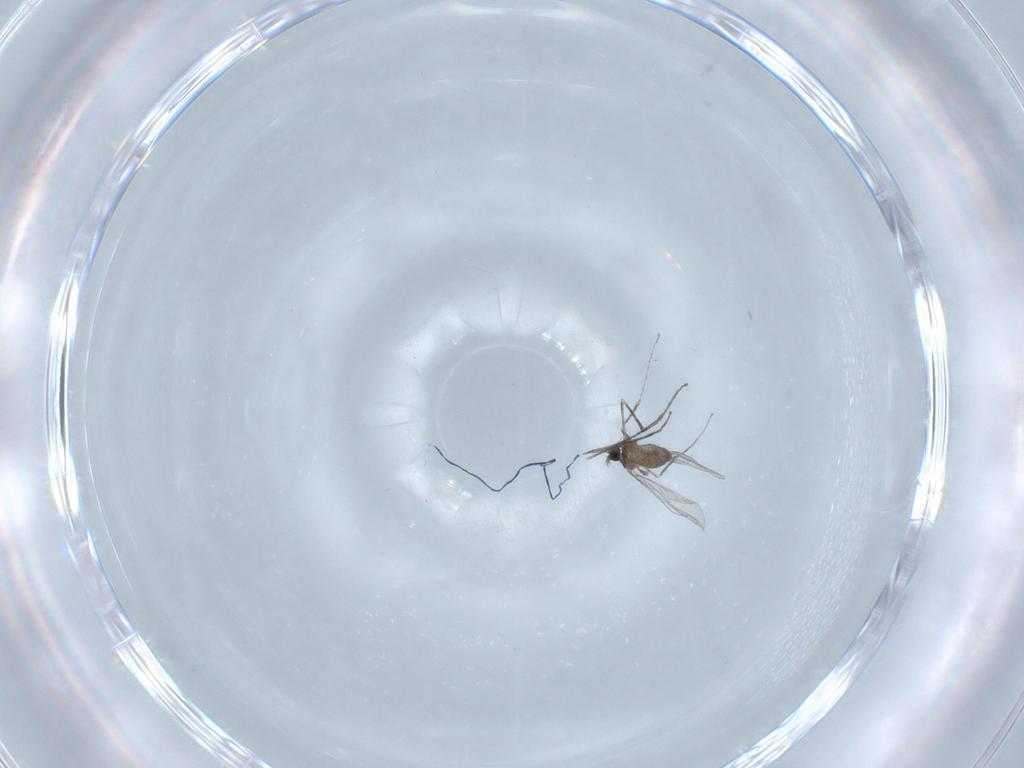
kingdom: Animalia
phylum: Arthropoda
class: Insecta
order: Diptera
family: Cecidomyiidae
